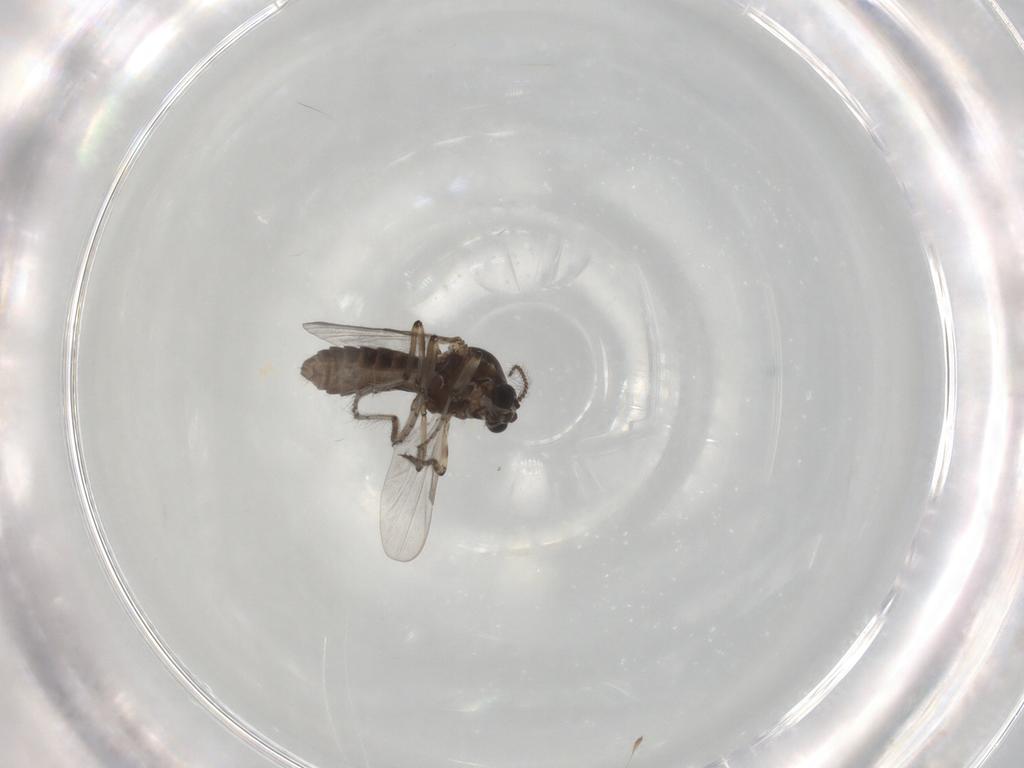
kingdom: Animalia
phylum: Arthropoda
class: Insecta
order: Diptera
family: Ceratopogonidae
